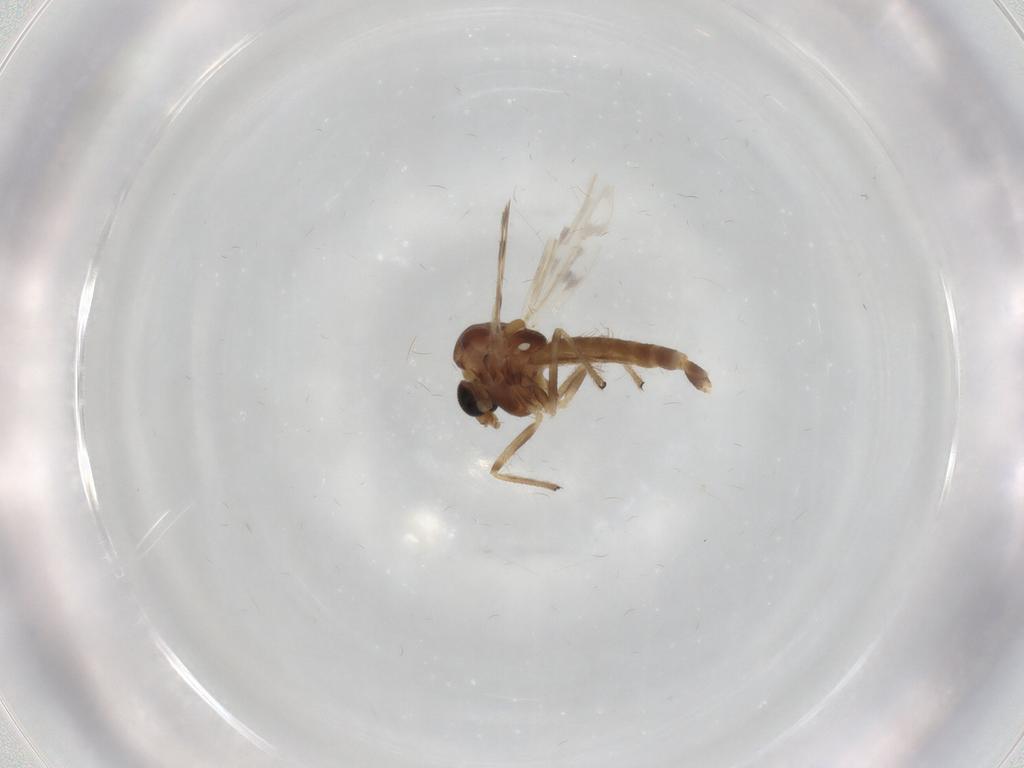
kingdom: Animalia
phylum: Arthropoda
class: Insecta
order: Diptera
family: Chironomidae
